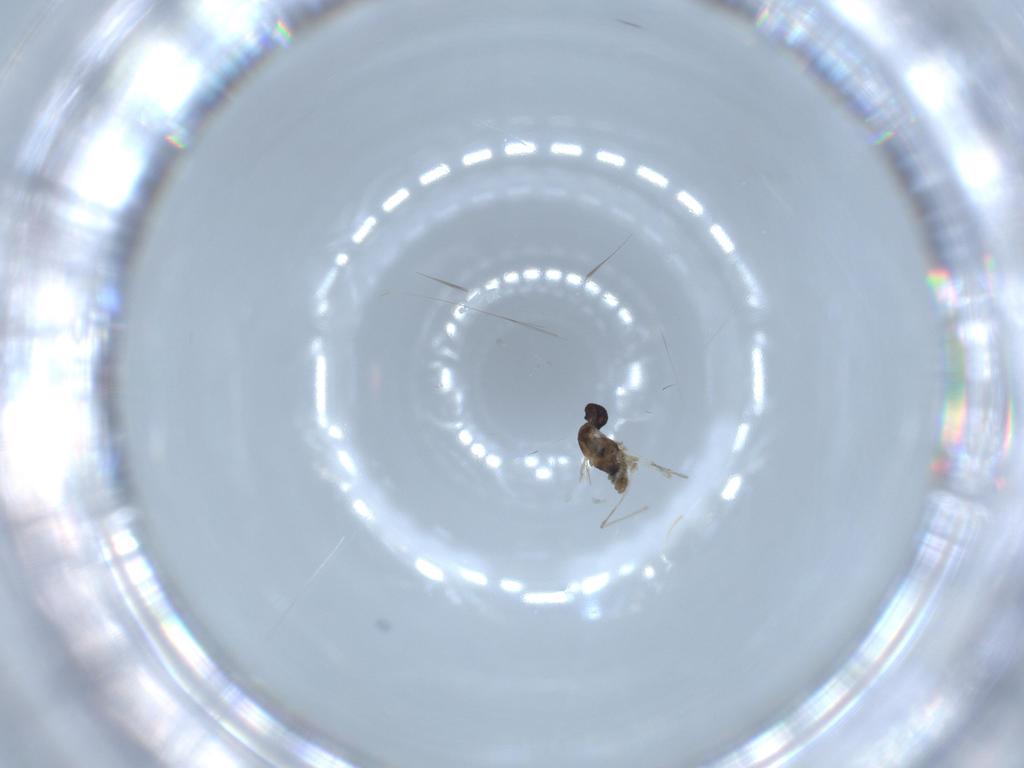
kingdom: Animalia
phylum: Arthropoda
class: Insecta
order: Diptera
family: Cecidomyiidae
